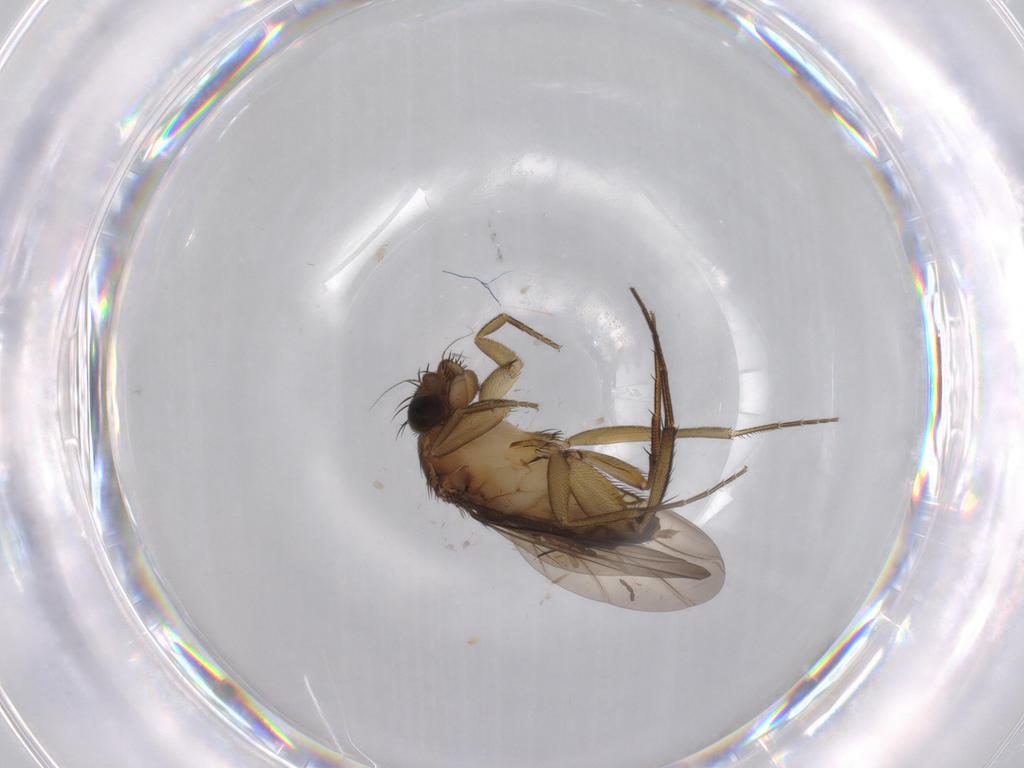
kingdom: Animalia
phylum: Arthropoda
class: Insecta
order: Diptera
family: Phoridae
